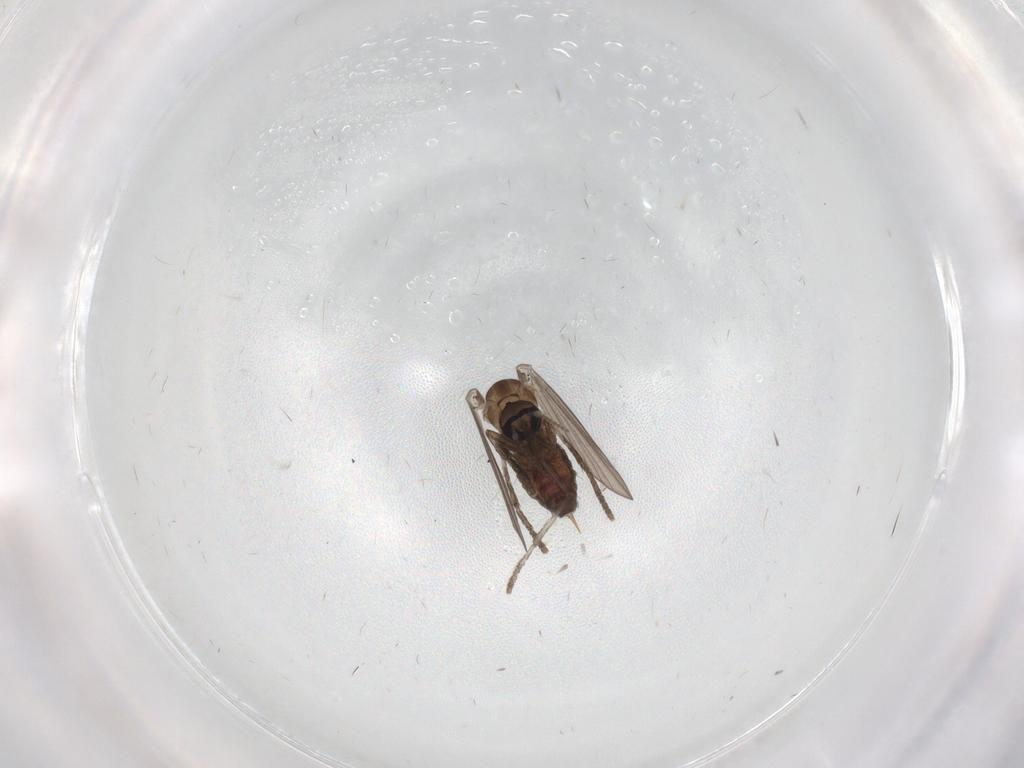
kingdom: Animalia
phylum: Arthropoda
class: Insecta
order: Diptera
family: Psychodidae
